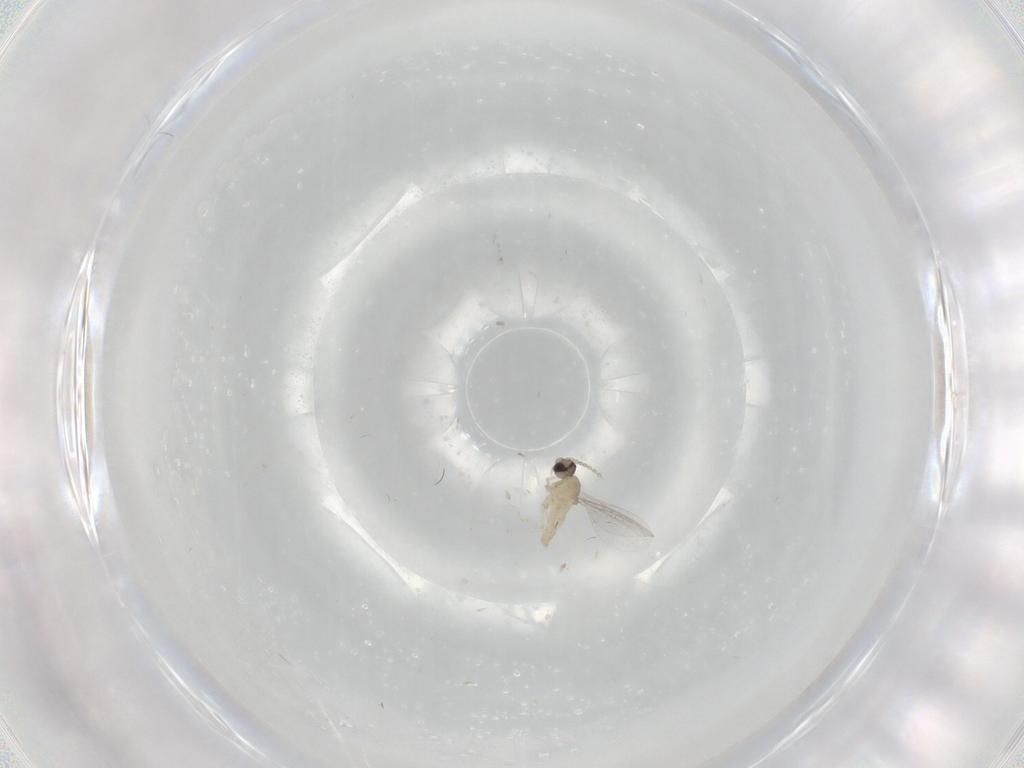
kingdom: Animalia
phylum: Arthropoda
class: Insecta
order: Diptera
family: Cecidomyiidae
